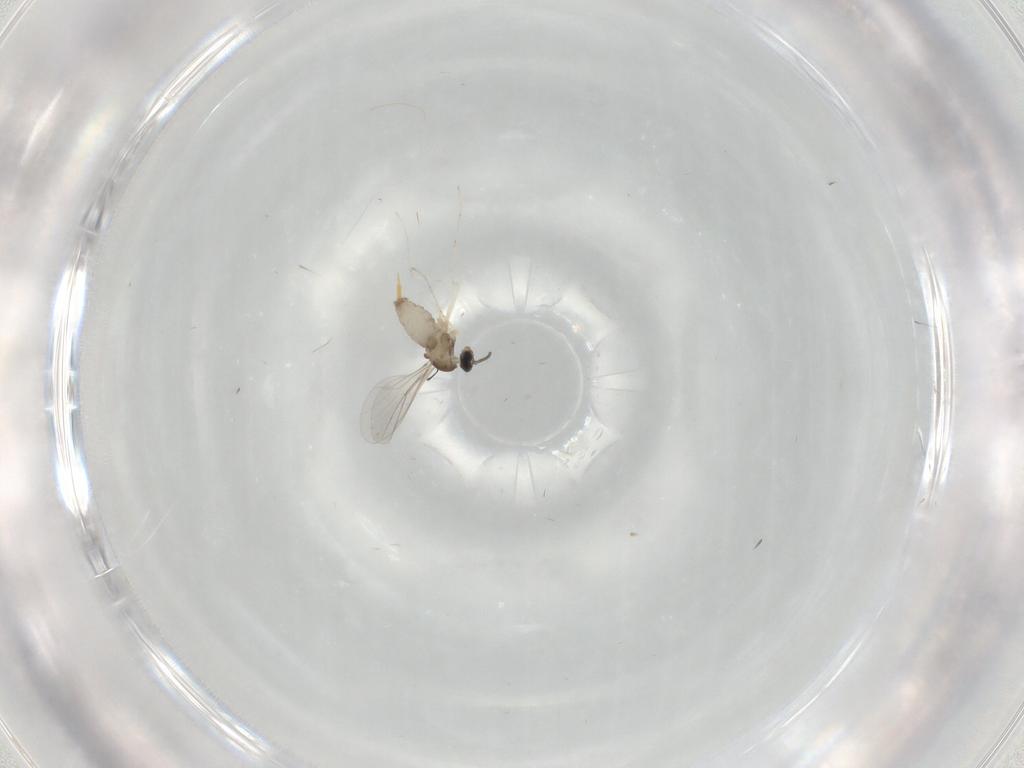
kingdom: Animalia
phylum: Arthropoda
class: Insecta
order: Diptera
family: Cecidomyiidae
